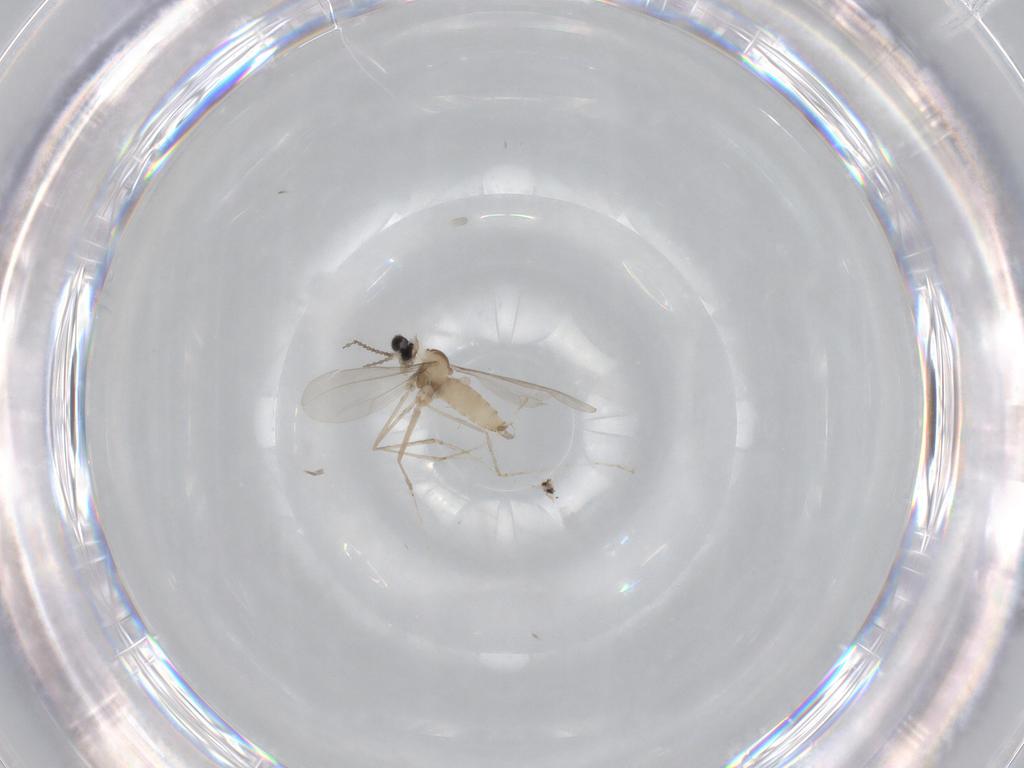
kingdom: Animalia
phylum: Arthropoda
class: Insecta
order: Diptera
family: Cecidomyiidae
